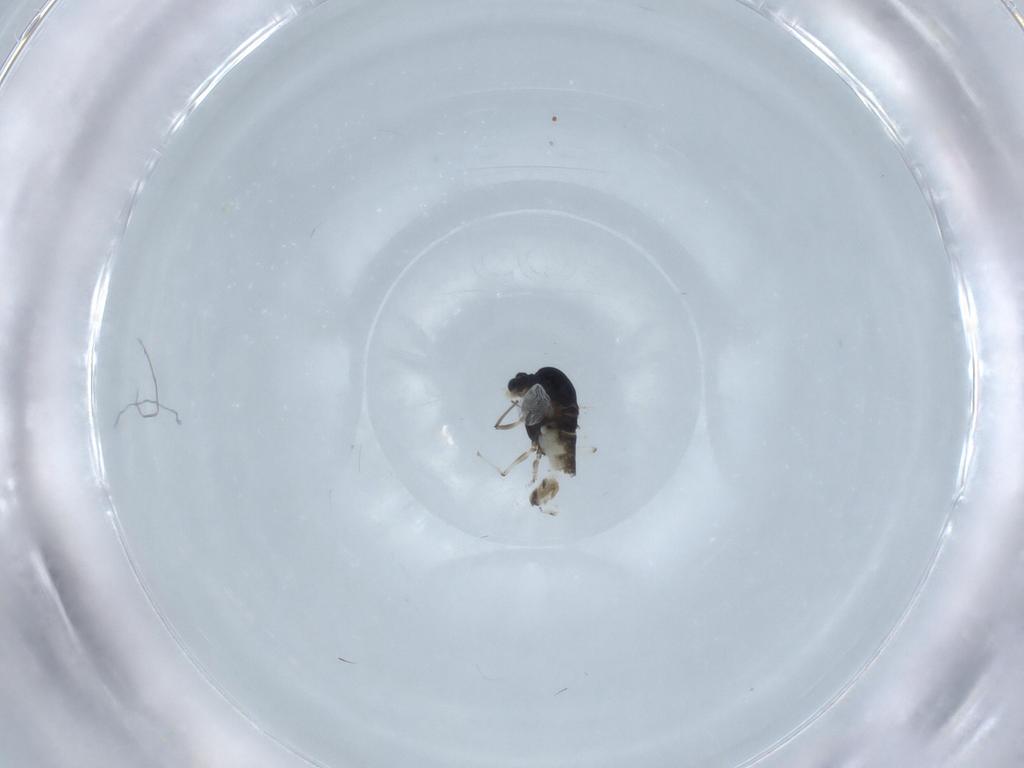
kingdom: Animalia
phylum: Arthropoda
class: Insecta
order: Diptera
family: Chironomidae
